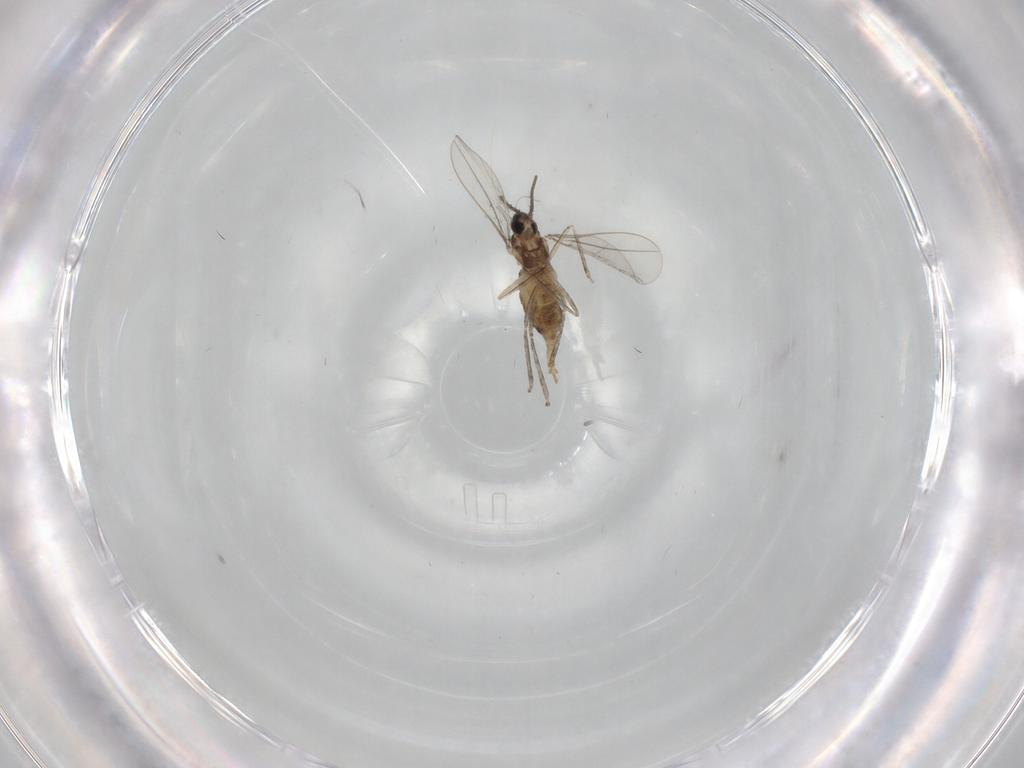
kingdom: Animalia
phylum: Arthropoda
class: Insecta
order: Diptera
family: Cecidomyiidae
